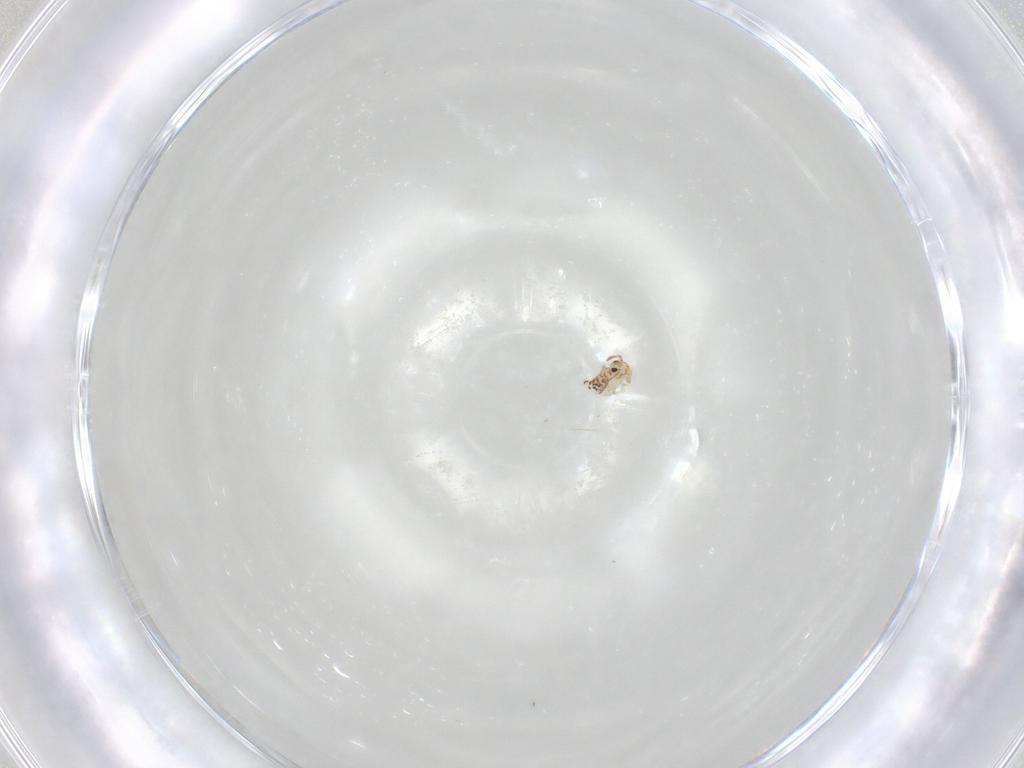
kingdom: Animalia
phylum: Arthropoda
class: Collembola
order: Symphypleona
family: Bourletiellidae
